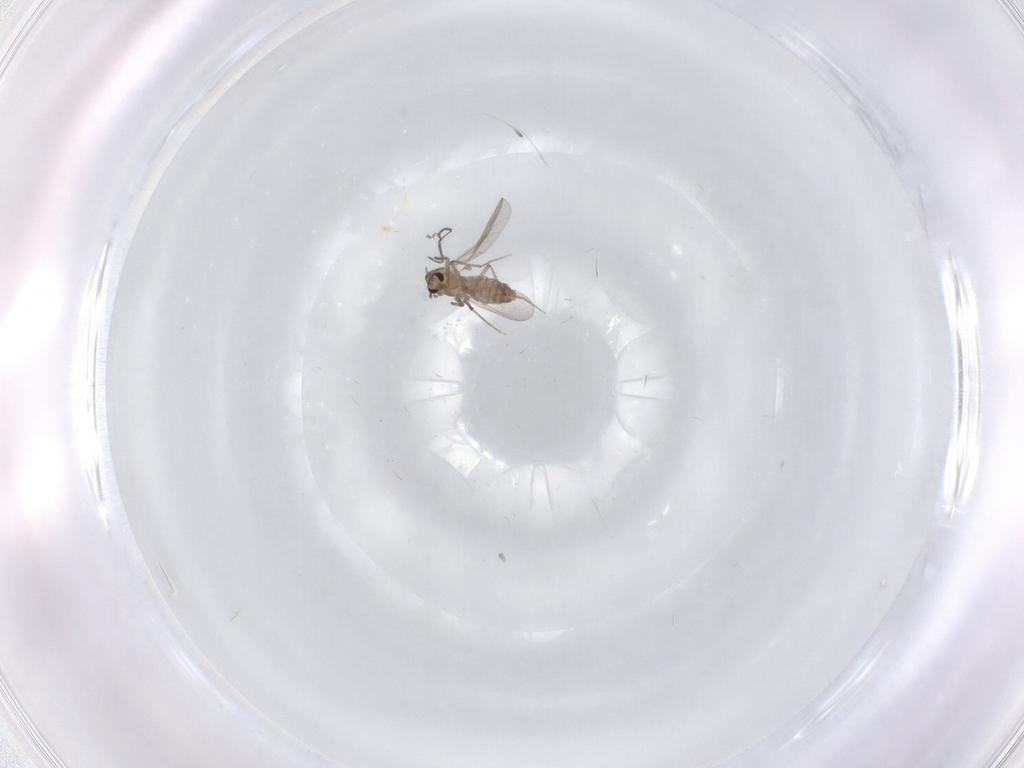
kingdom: Animalia
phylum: Arthropoda
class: Insecta
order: Diptera
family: Chironomidae
